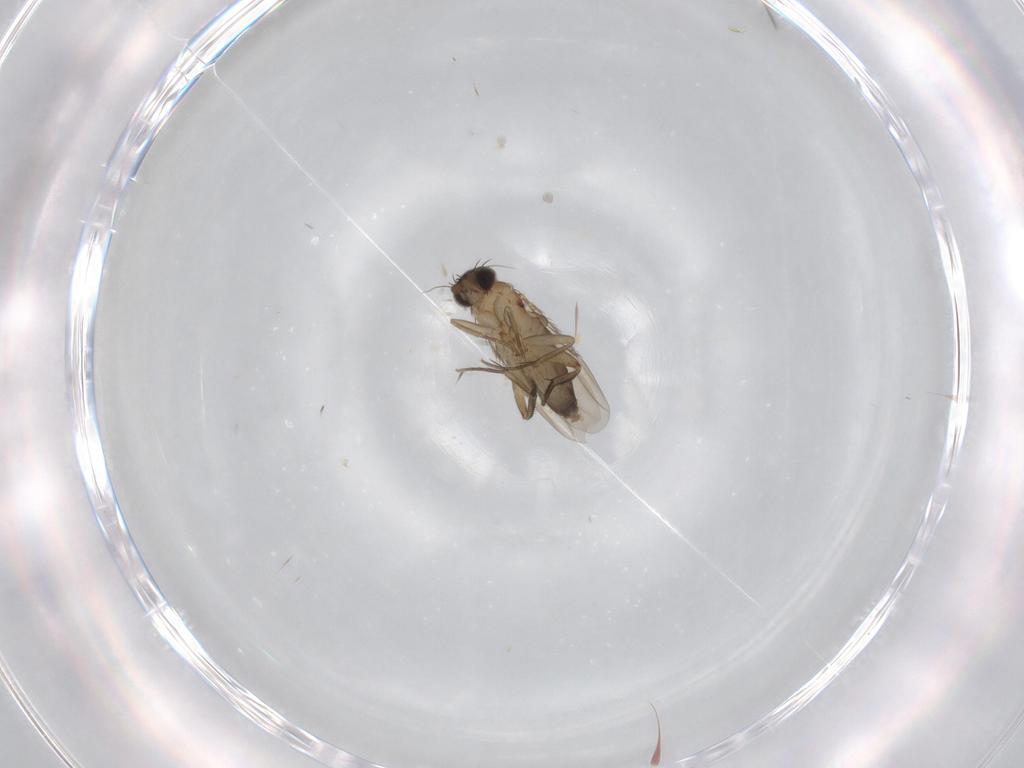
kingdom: Animalia
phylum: Arthropoda
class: Insecta
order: Diptera
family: Phoridae
